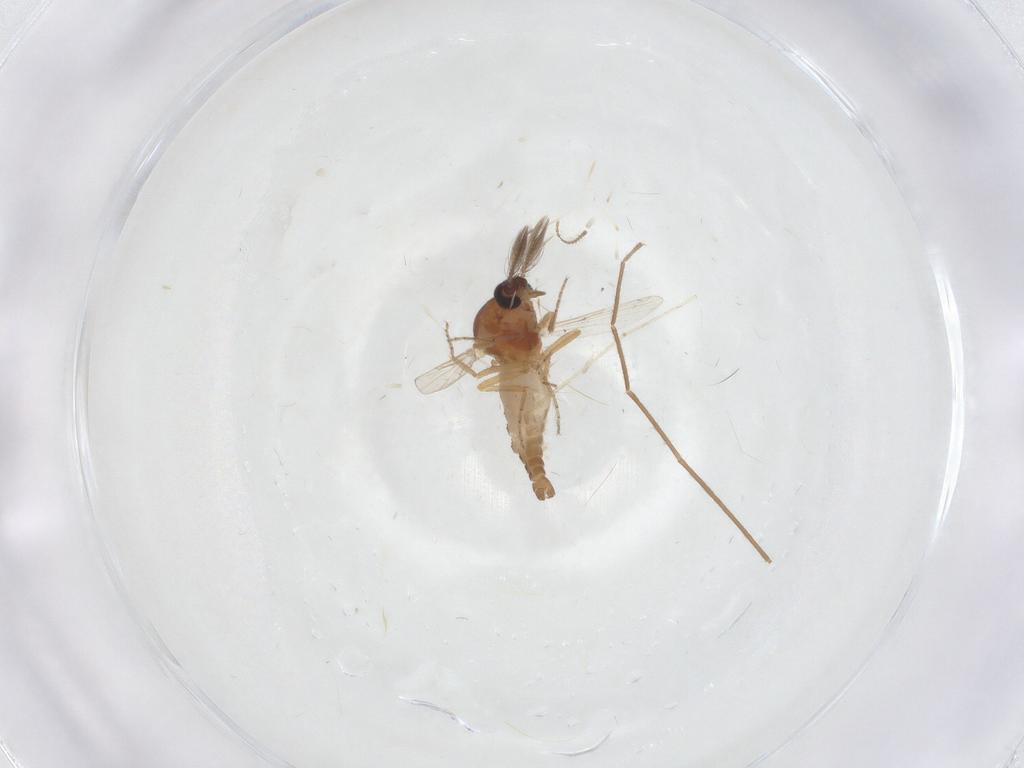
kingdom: Animalia
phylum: Arthropoda
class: Insecta
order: Diptera
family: Ceratopogonidae
